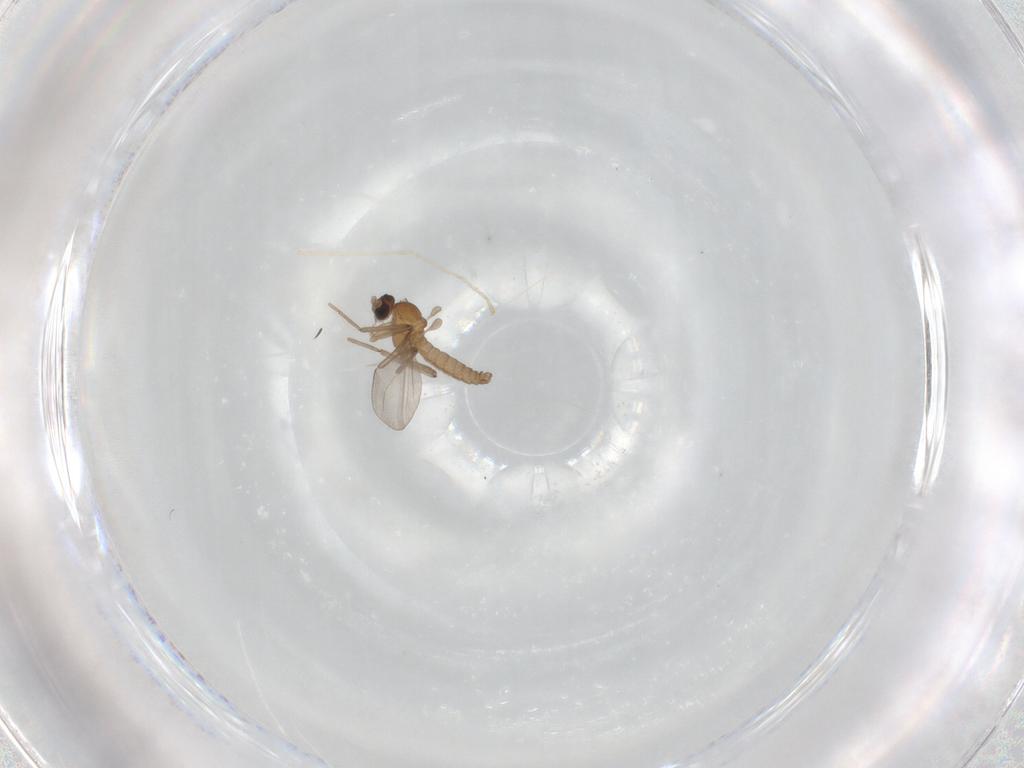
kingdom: Animalia
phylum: Arthropoda
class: Insecta
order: Diptera
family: Cecidomyiidae
